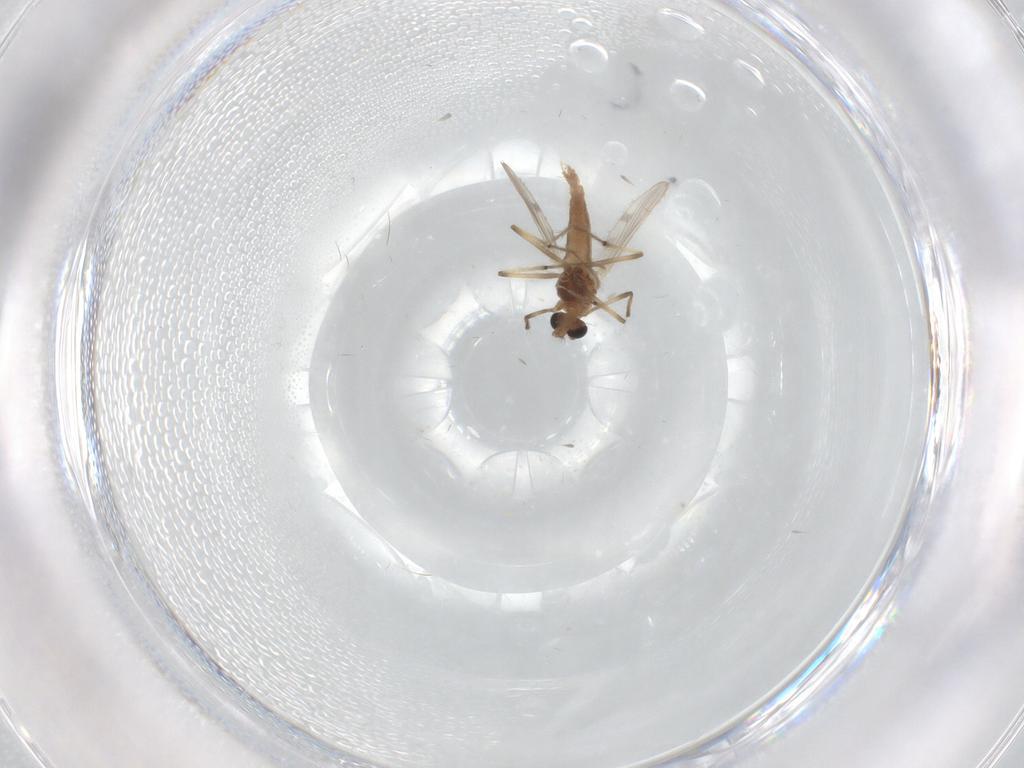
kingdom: Animalia
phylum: Arthropoda
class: Insecta
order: Diptera
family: Chironomidae
